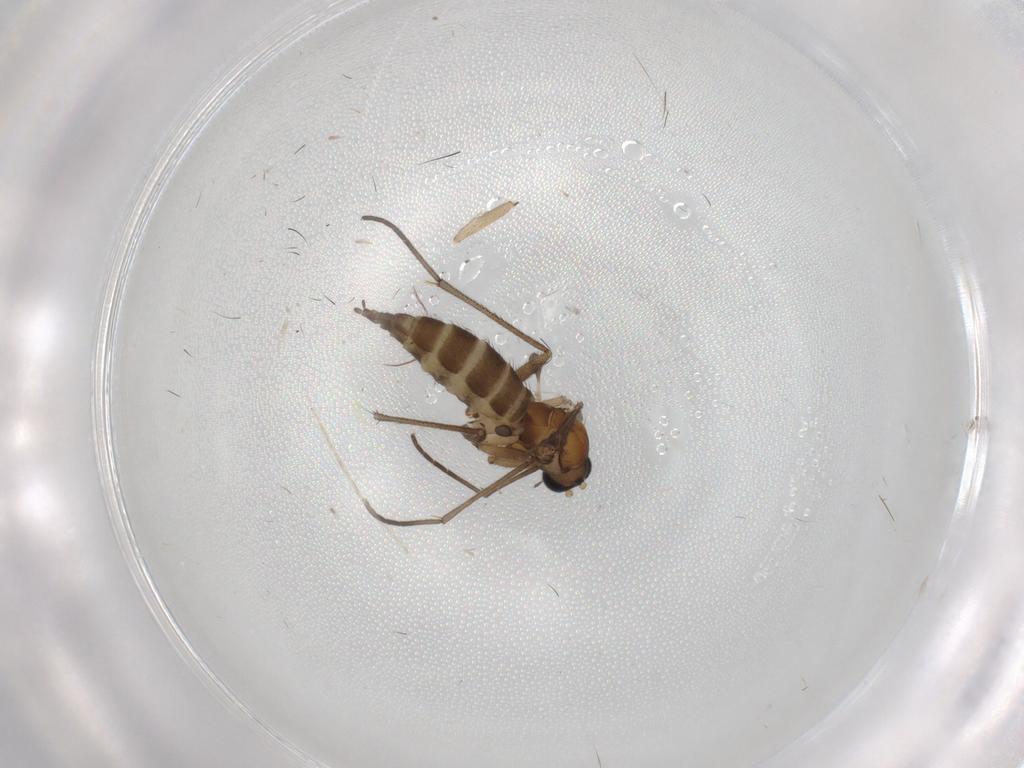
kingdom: Animalia
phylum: Arthropoda
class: Insecta
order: Diptera
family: Sciaridae
